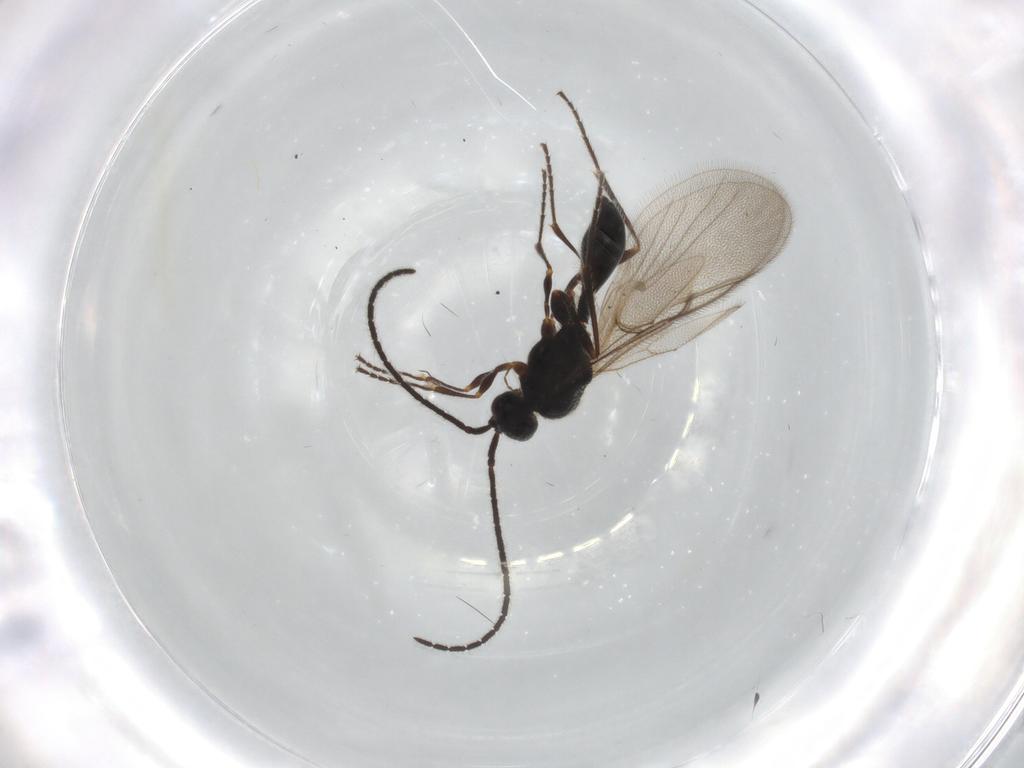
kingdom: Animalia
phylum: Arthropoda
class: Insecta
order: Hymenoptera
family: Diapriidae
